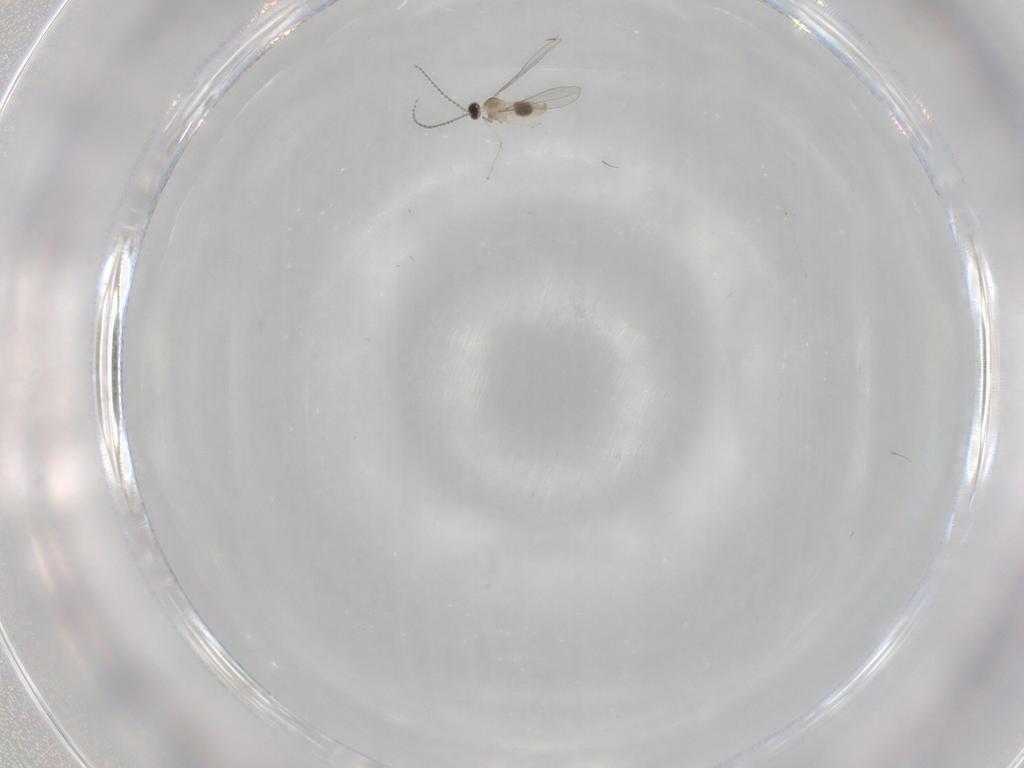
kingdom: Animalia
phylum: Arthropoda
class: Insecta
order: Diptera
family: Cecidomyiidae
